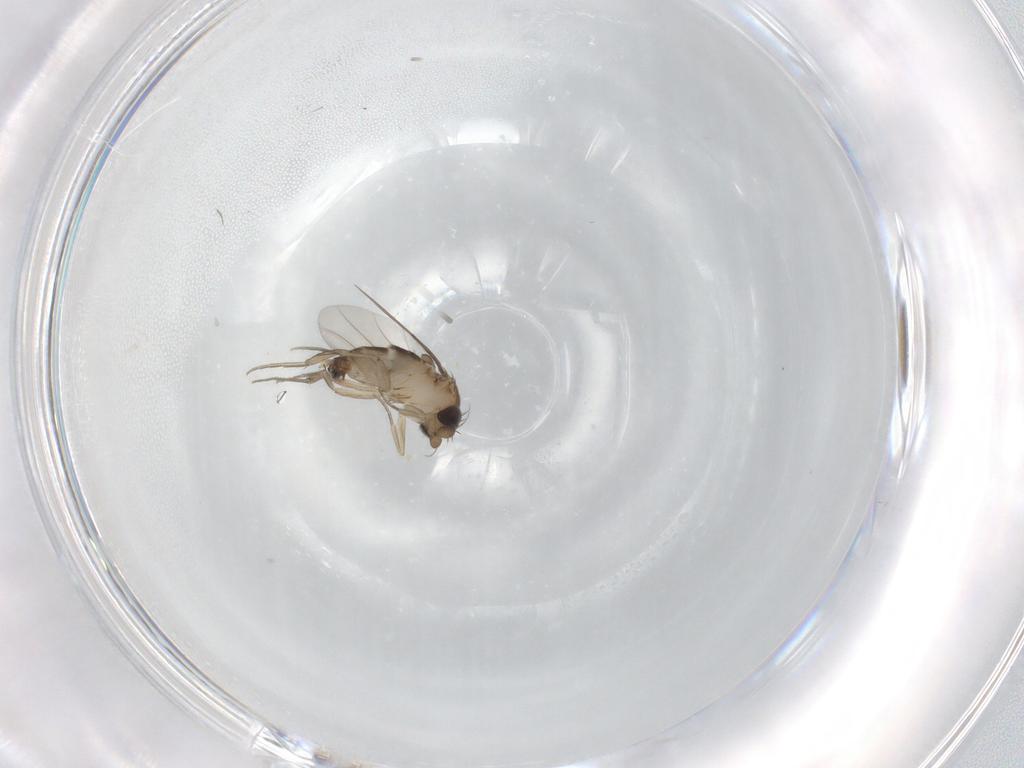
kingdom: Animalia
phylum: Arthropoda
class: Insecta
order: Diptera
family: Phoridae
